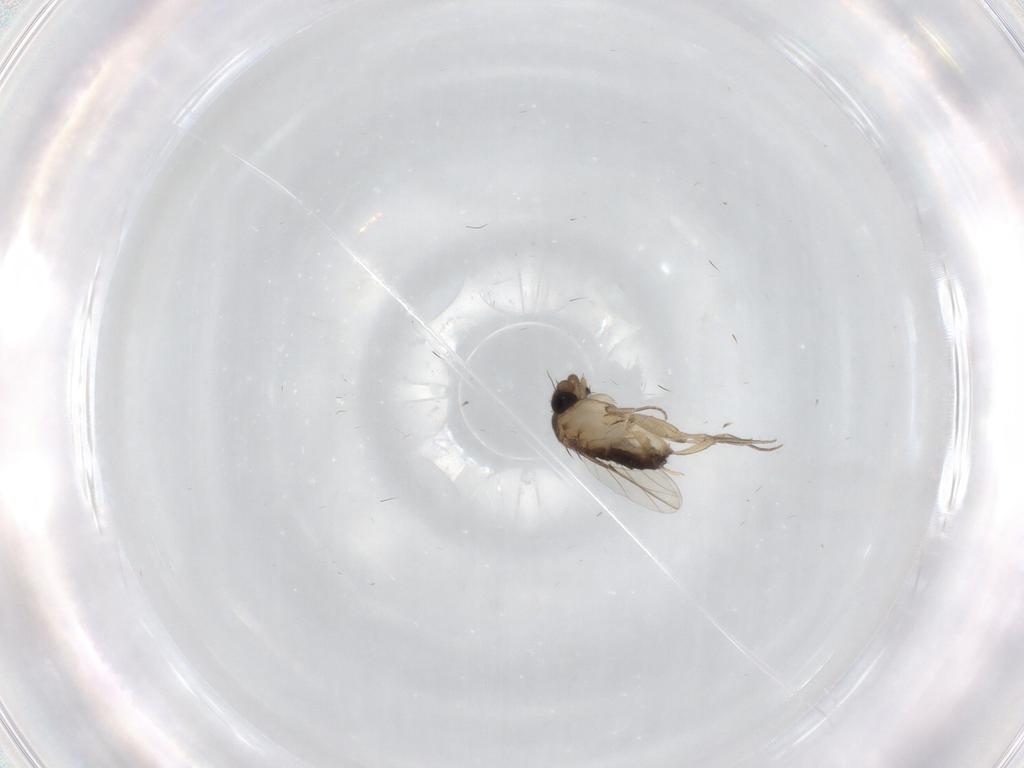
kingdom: Animalia
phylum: Arthropoda
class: Insecta
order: Diptera
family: Phoridae
